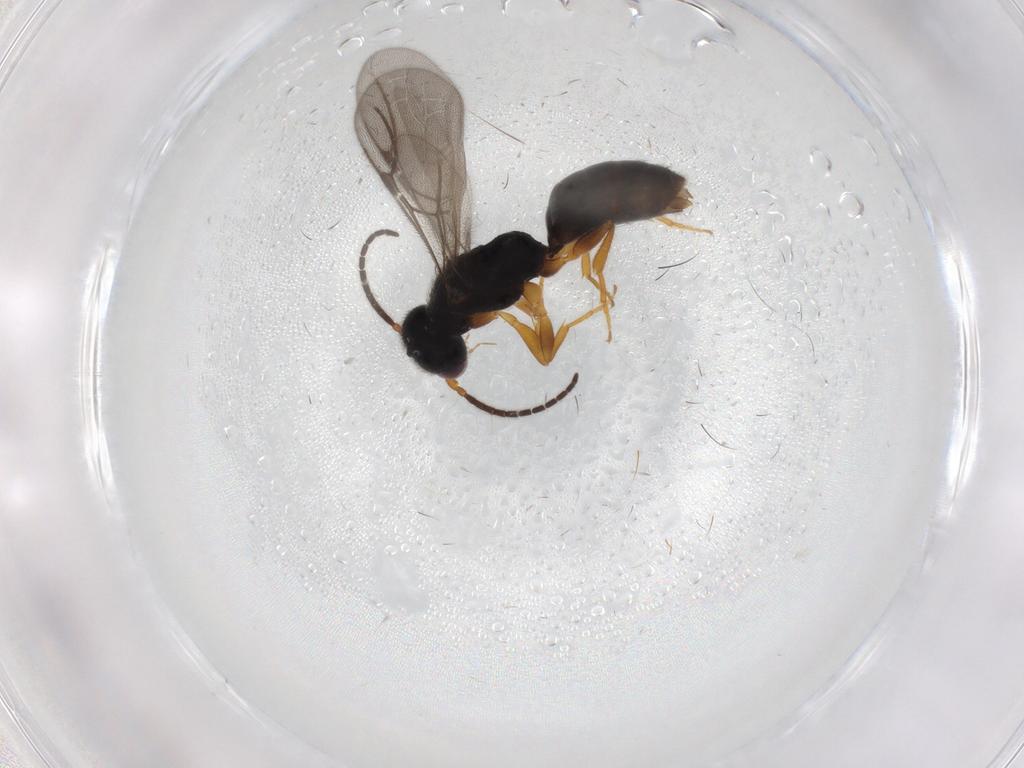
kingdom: Animalia
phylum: Arthropoda
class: Insecta
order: Hymenoptera
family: Bethylidae
